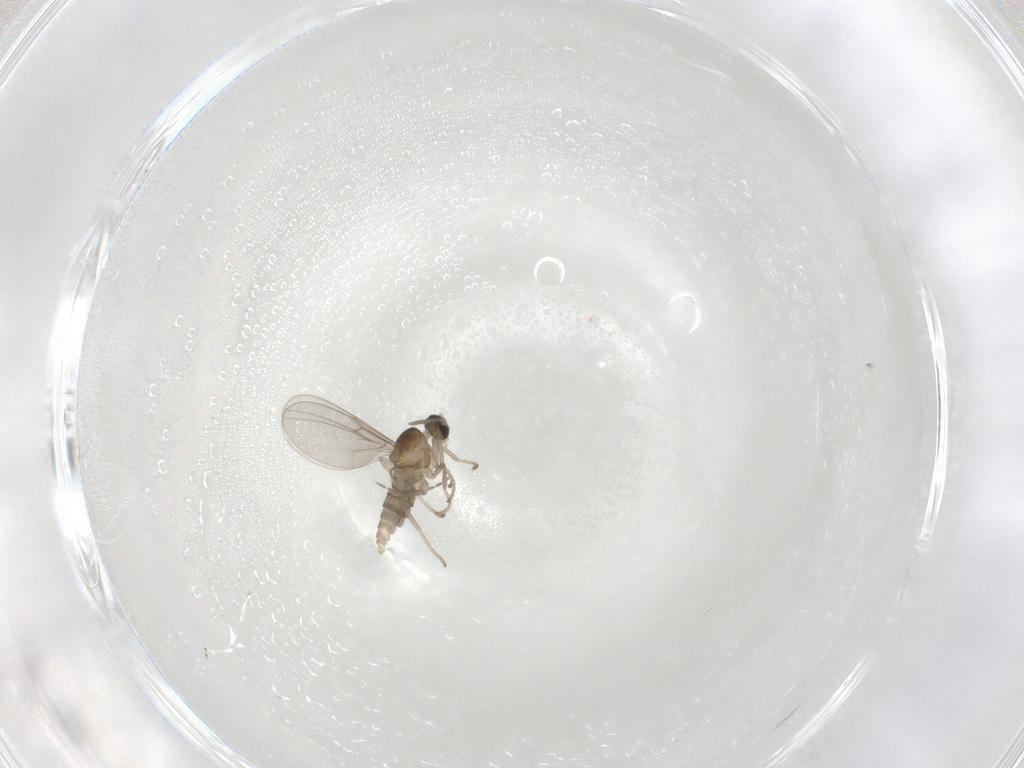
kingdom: Animalia
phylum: Arthropoda
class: Insecta
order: Diptera
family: Cecidomyiidae
